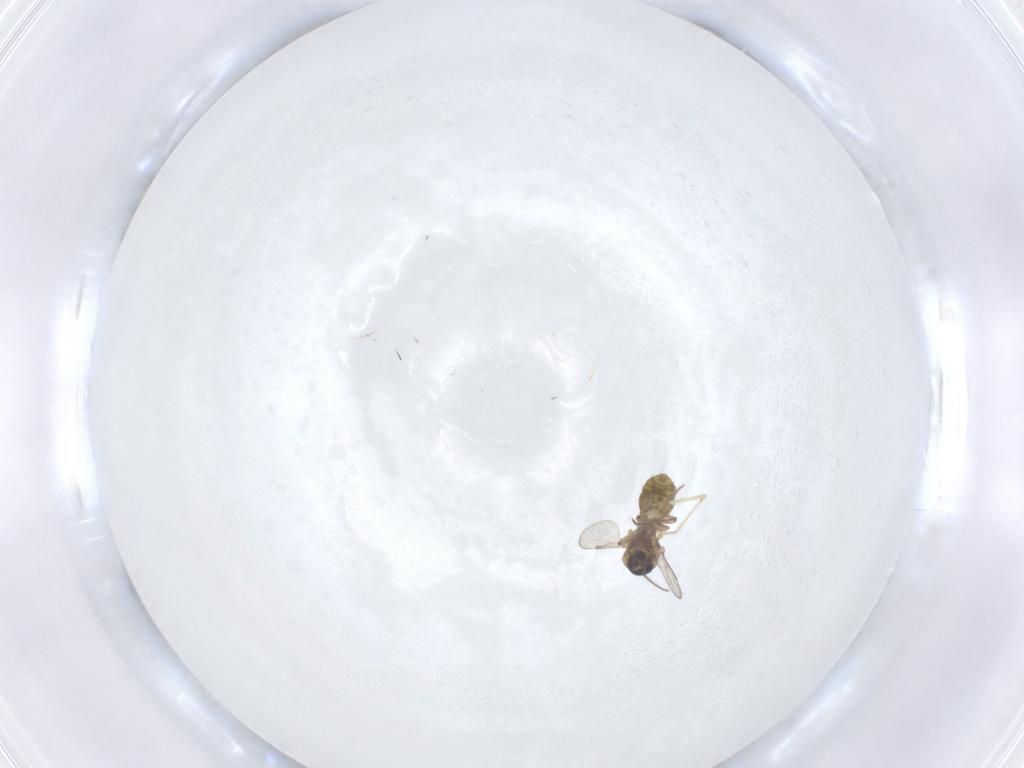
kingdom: Animalia
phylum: Arthropoda
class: Insecta
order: Diptera
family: Ceratopogonidae
